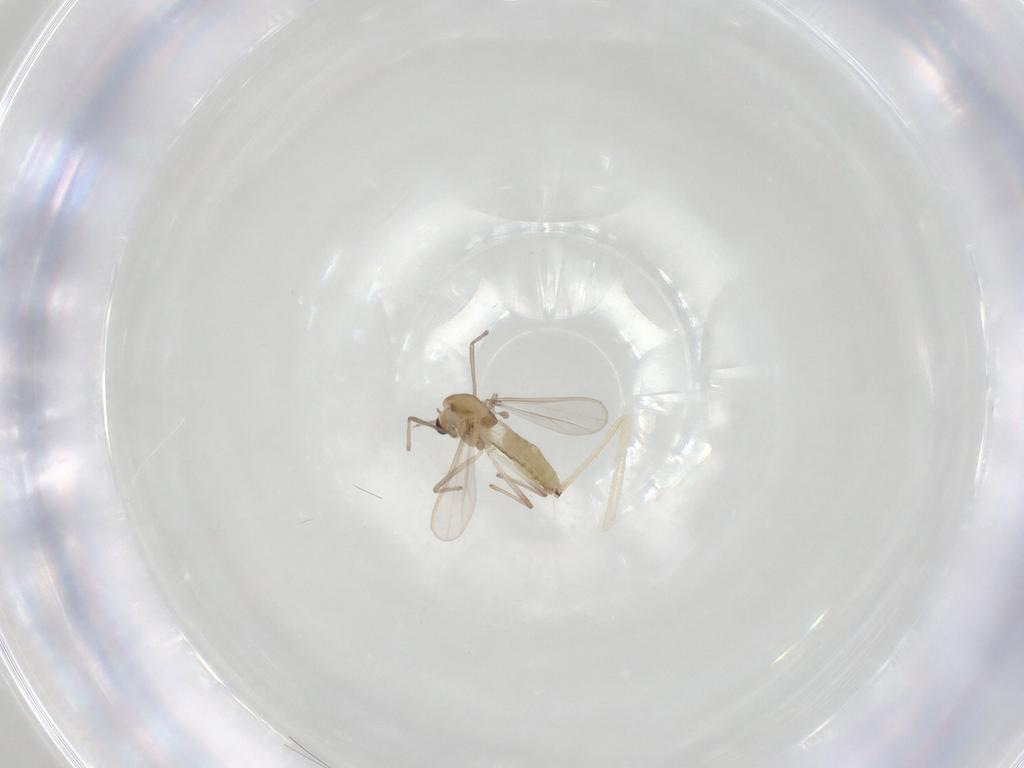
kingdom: Animalia
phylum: Arthropoda
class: Insecta
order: Diptera
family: Chironomidae
